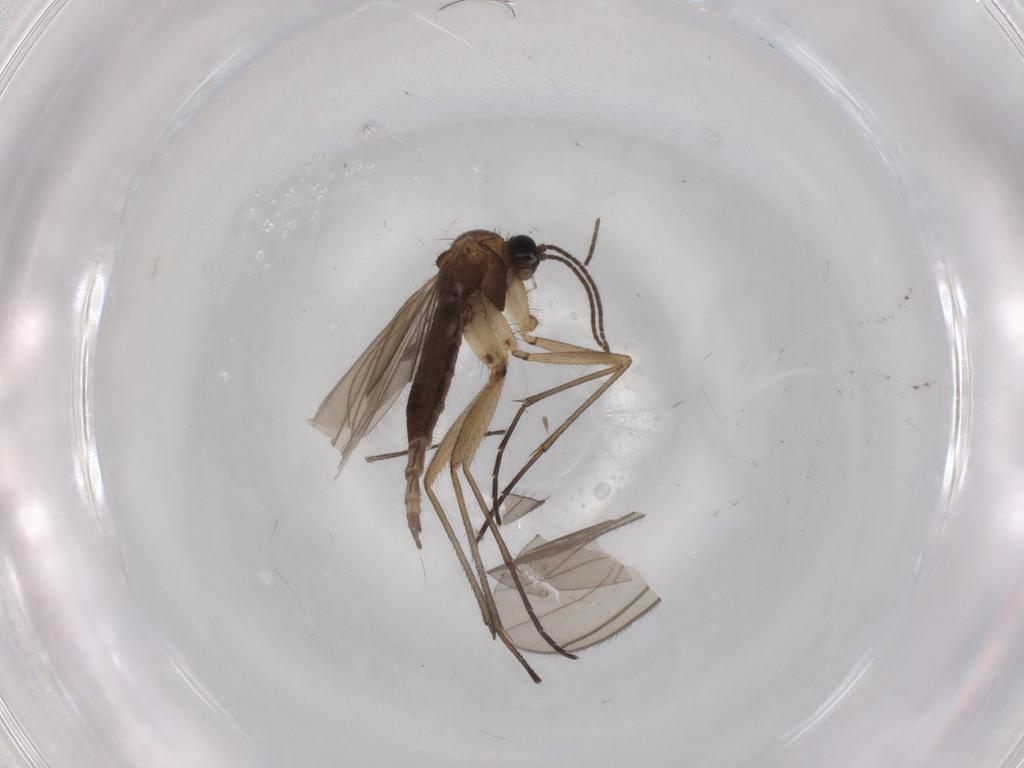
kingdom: Animalia
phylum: Arthropoda
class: Insecta
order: Diptera
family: Sciaridae
